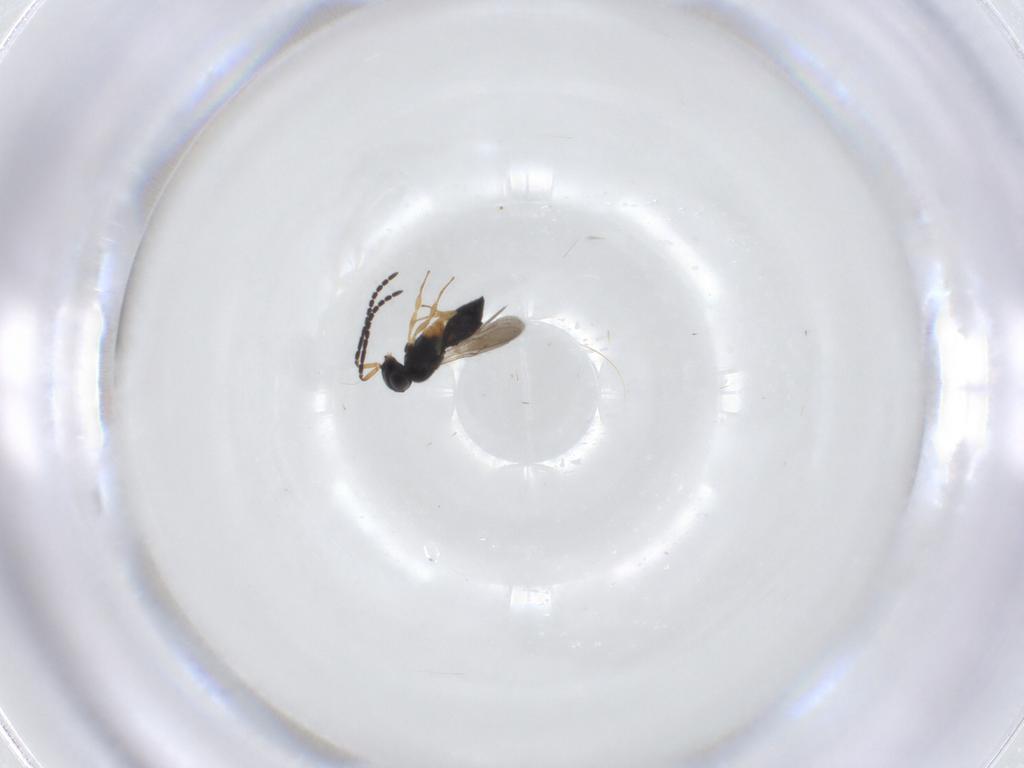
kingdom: Animalia
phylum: Arthropoda
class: Insecta
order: Hymenoptera
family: Scelionidae
